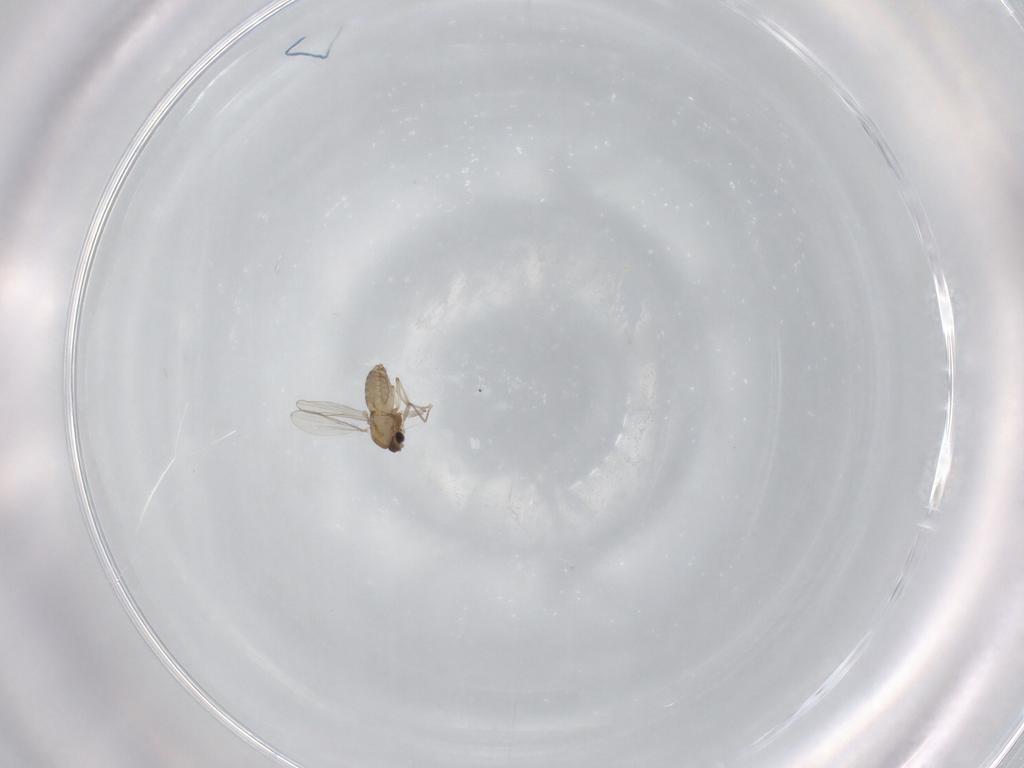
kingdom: Animalia
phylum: Arthropoda
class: Insecta
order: Diptera
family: Chironomidae
